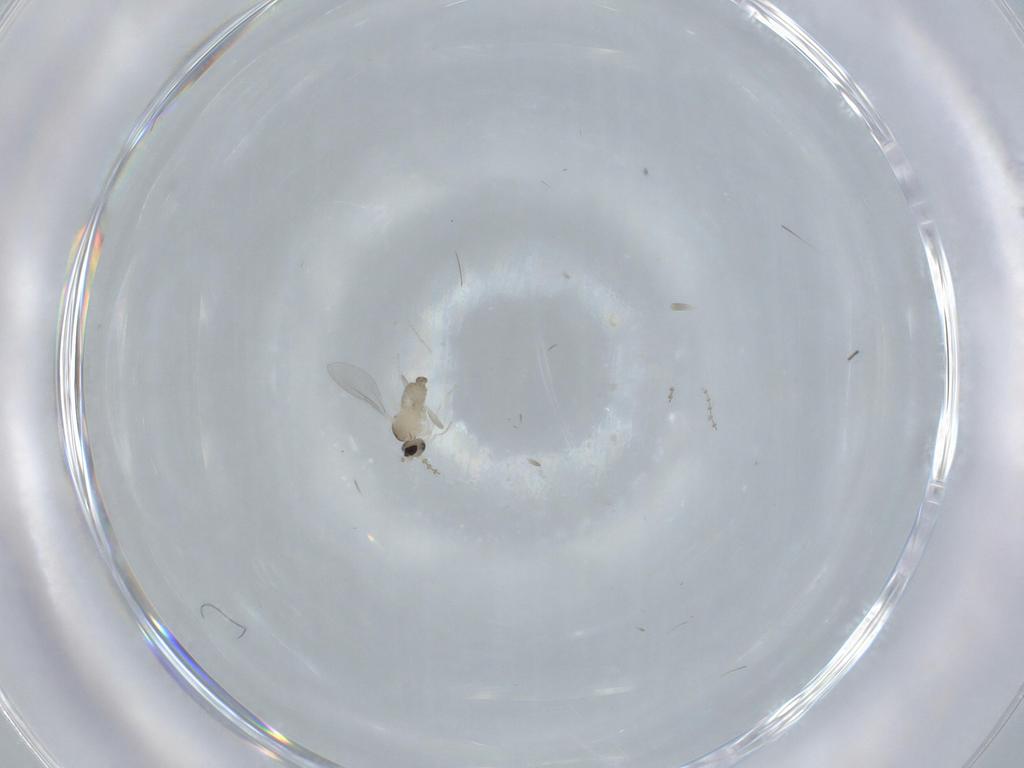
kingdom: Animalia
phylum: Arthropoda
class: Insecta
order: Diptera
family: Cecidomyiidae
